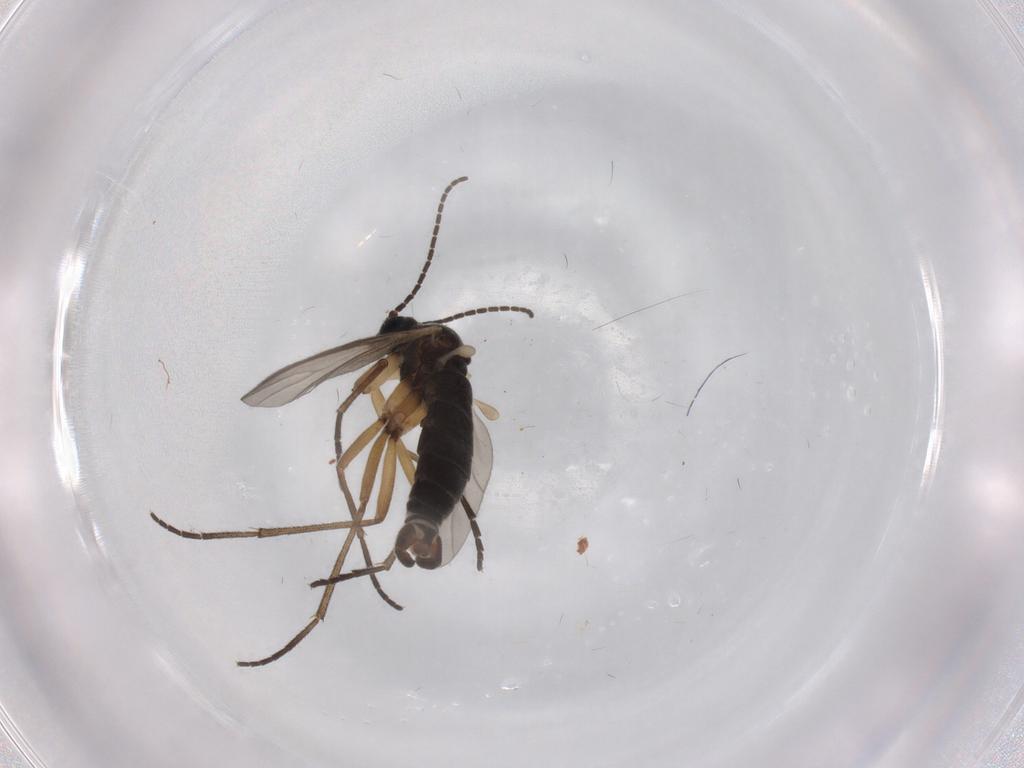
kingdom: Animalia
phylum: Arthropoda
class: Insecta
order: Diptera
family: Sciaridae
